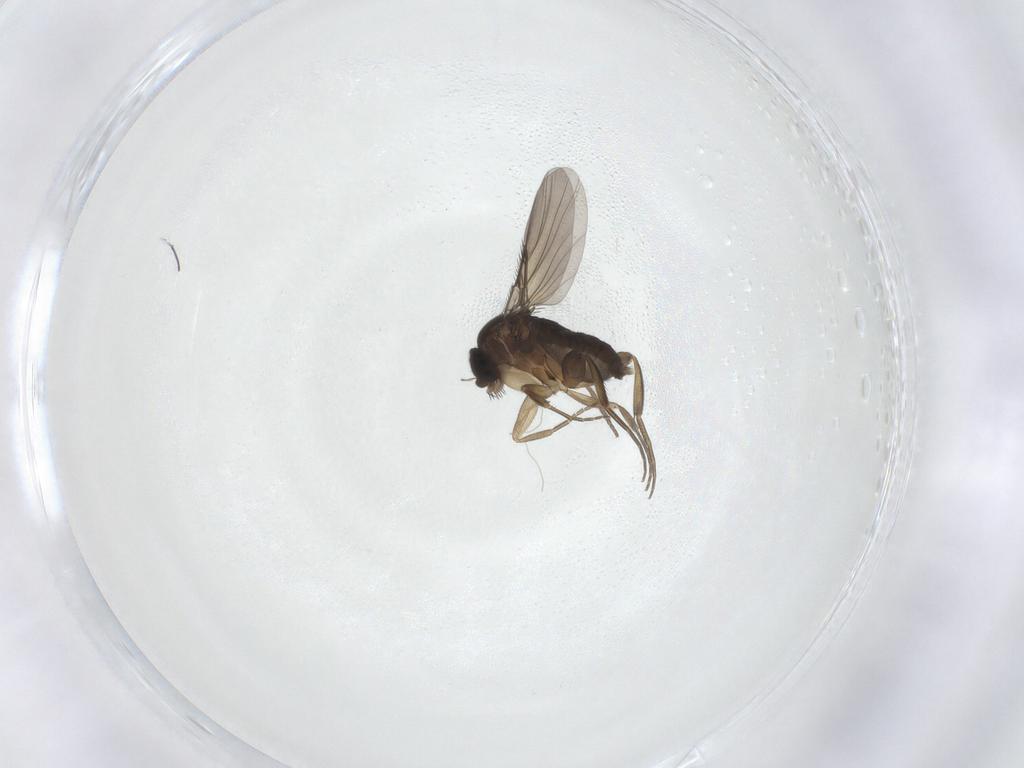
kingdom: Animalia
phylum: Arthropoda
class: Insecta
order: Diptera
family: Phoridae
